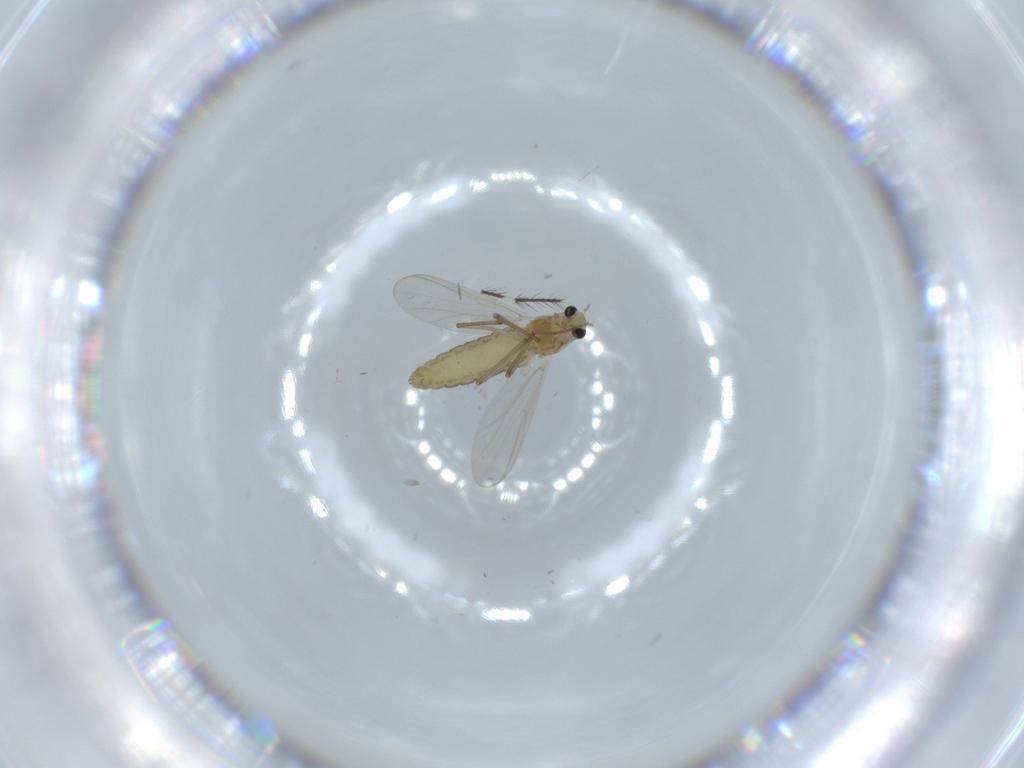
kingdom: Animalia
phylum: Arthropoda
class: Insecta
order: Diptera
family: Chironomidae
